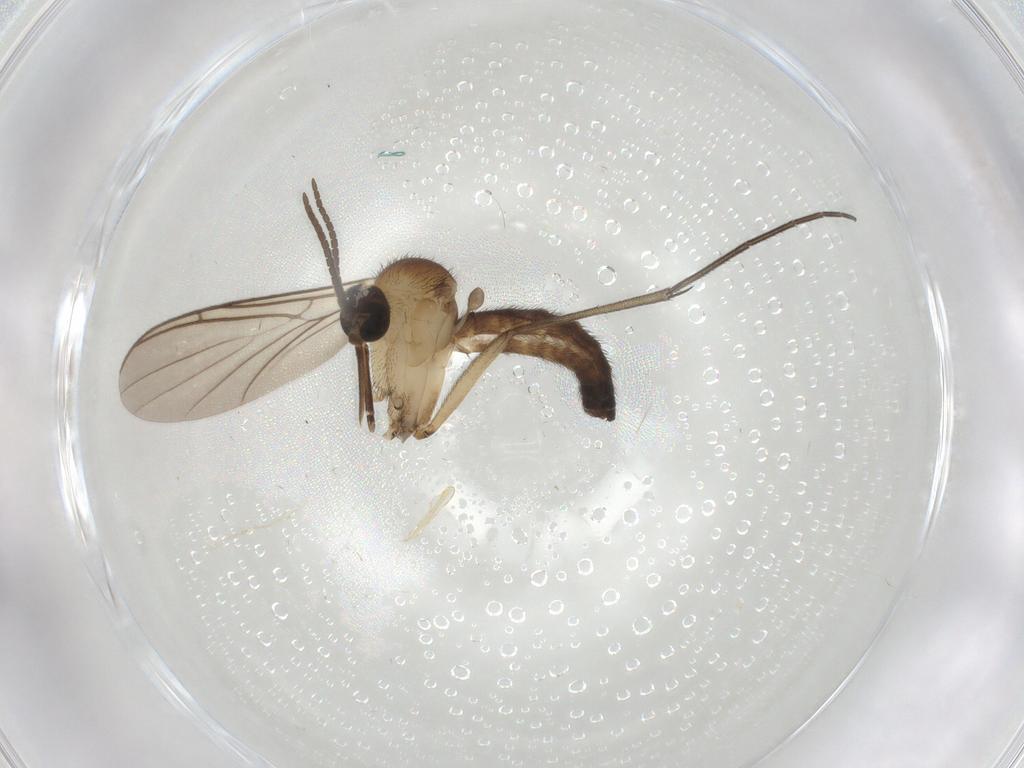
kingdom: Animalia
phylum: Arthropoda
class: Insecta
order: Diptera
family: Keroplatidae
